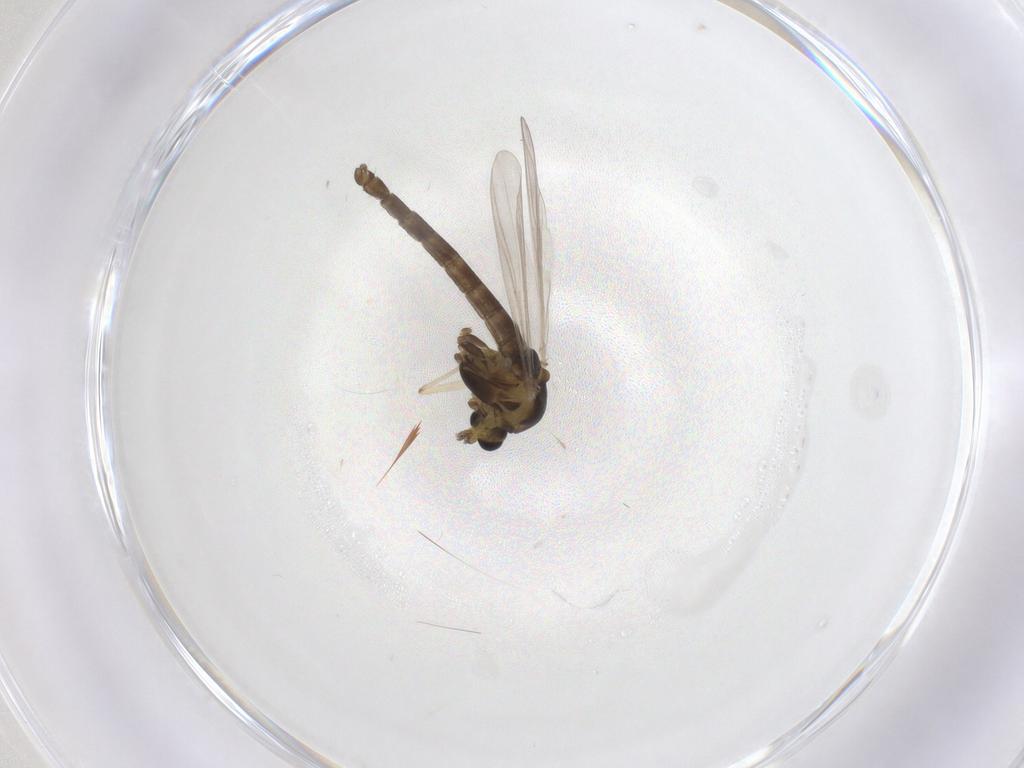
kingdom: Animalia
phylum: Arthropoda
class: Insecta
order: Diptera
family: Chironomidae
